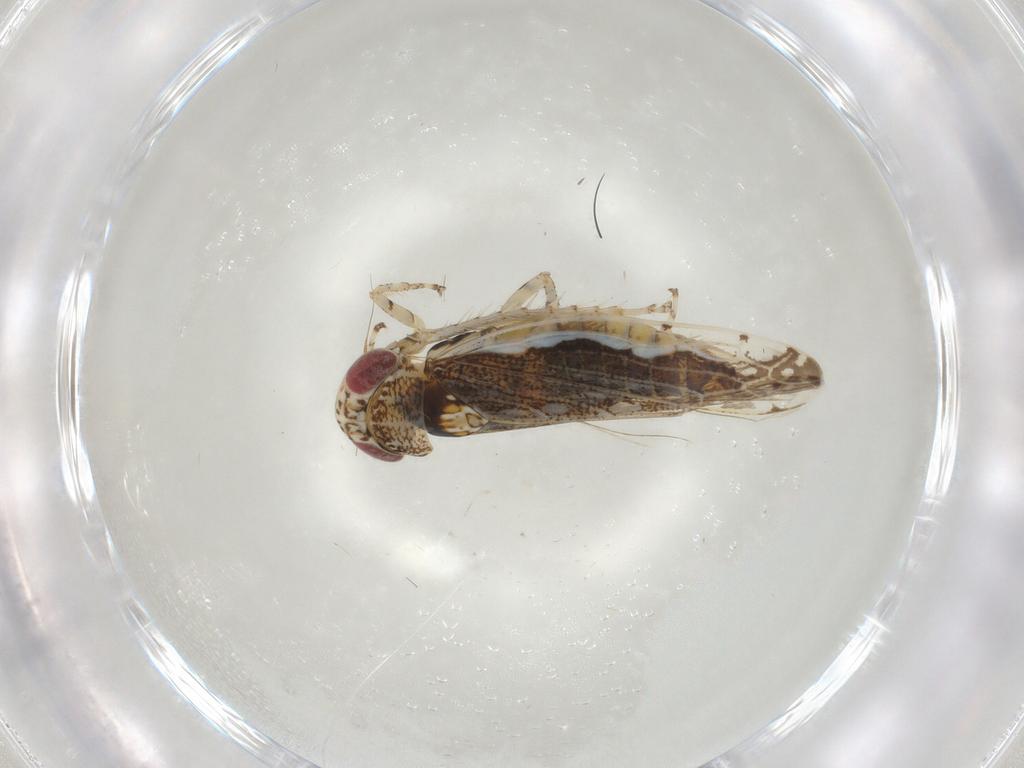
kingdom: Animalia
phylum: Arthropoda
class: Insecta
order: Hemiptera
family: Cicadellidae
